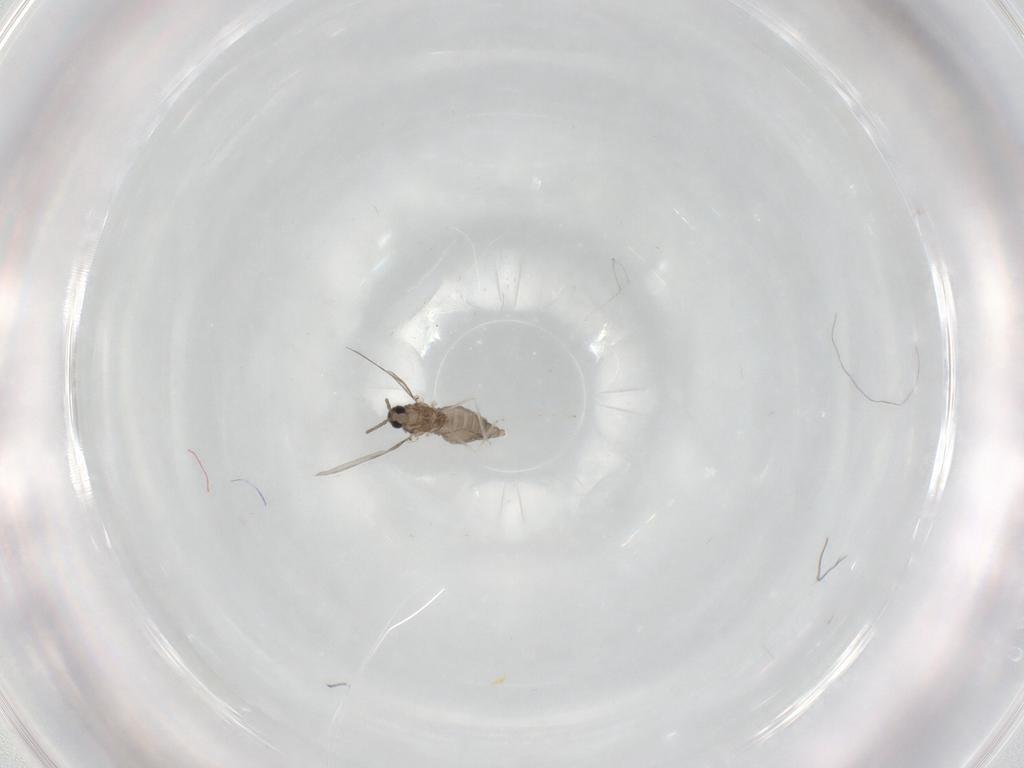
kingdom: Animalia
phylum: Arthropoda
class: Insecta
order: Diptera
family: Cecidomyiidae
